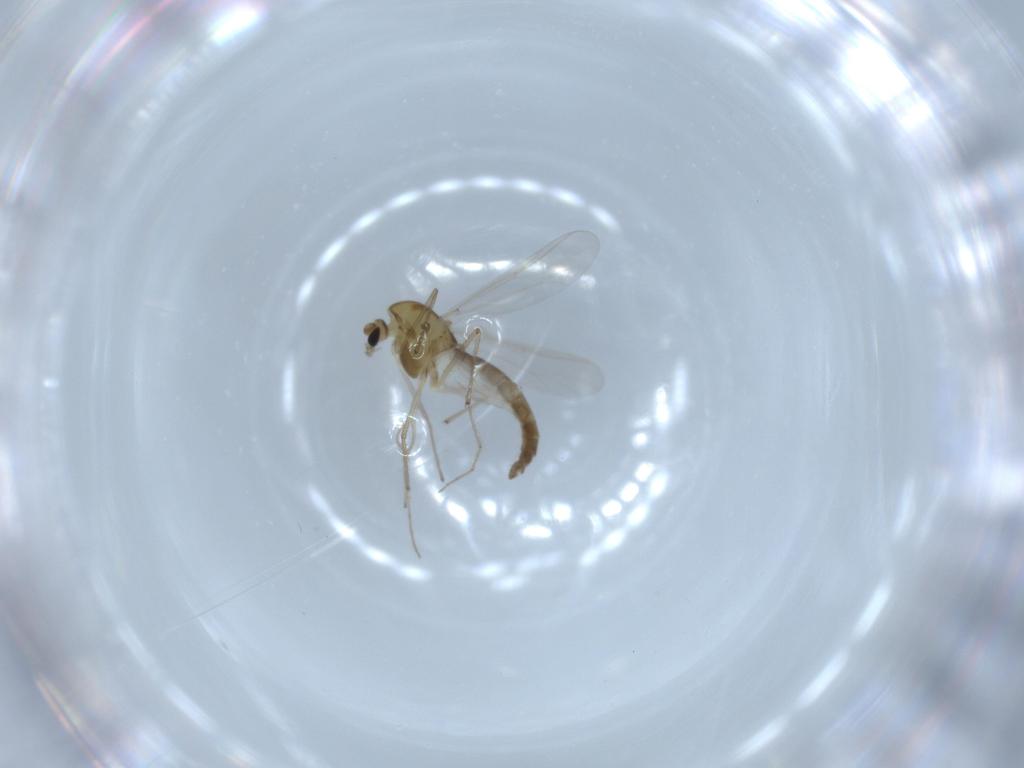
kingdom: Animalia
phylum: Arthropoda
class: Insecta
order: Diptera
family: Chironomidae
